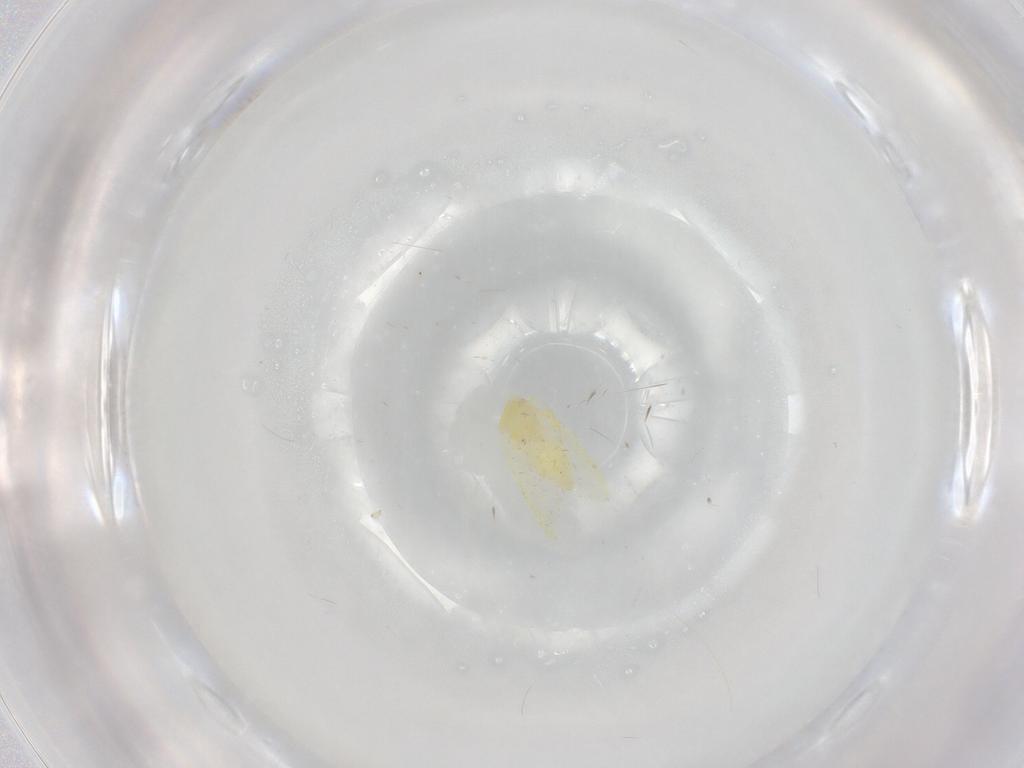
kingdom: Animalia
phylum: Arthropoda
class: Insecta
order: Hemiptera
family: Aleyrodidae
